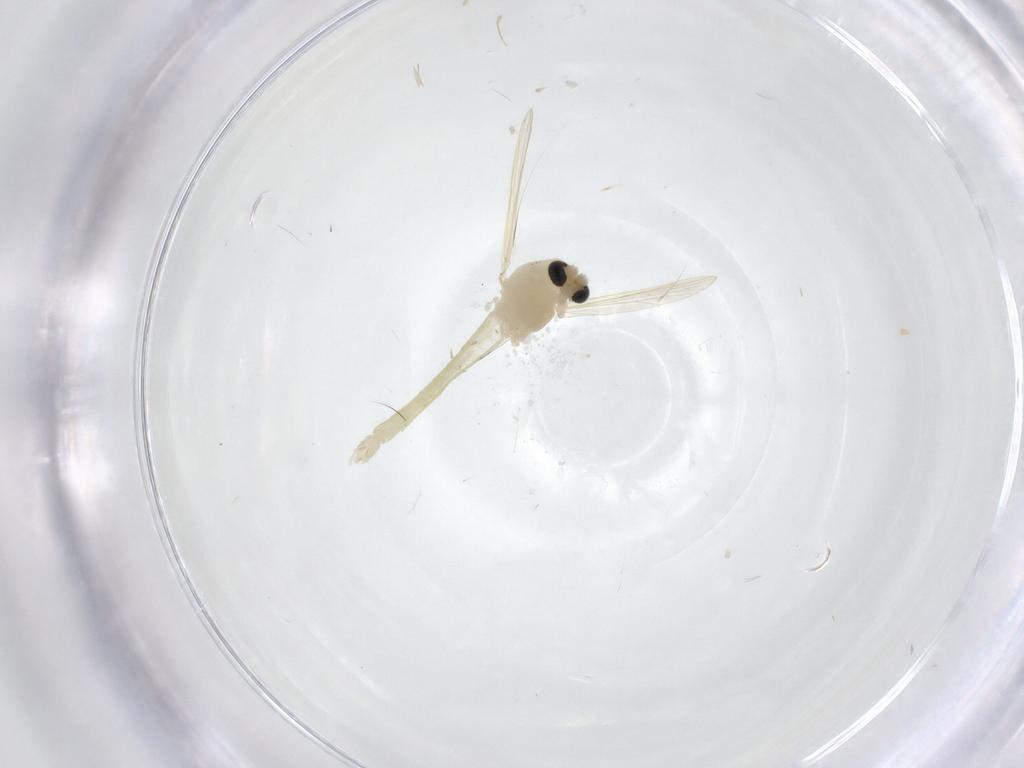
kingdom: Animalia
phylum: Arthropoda
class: Insecta
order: Diptera
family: Chironomidae
